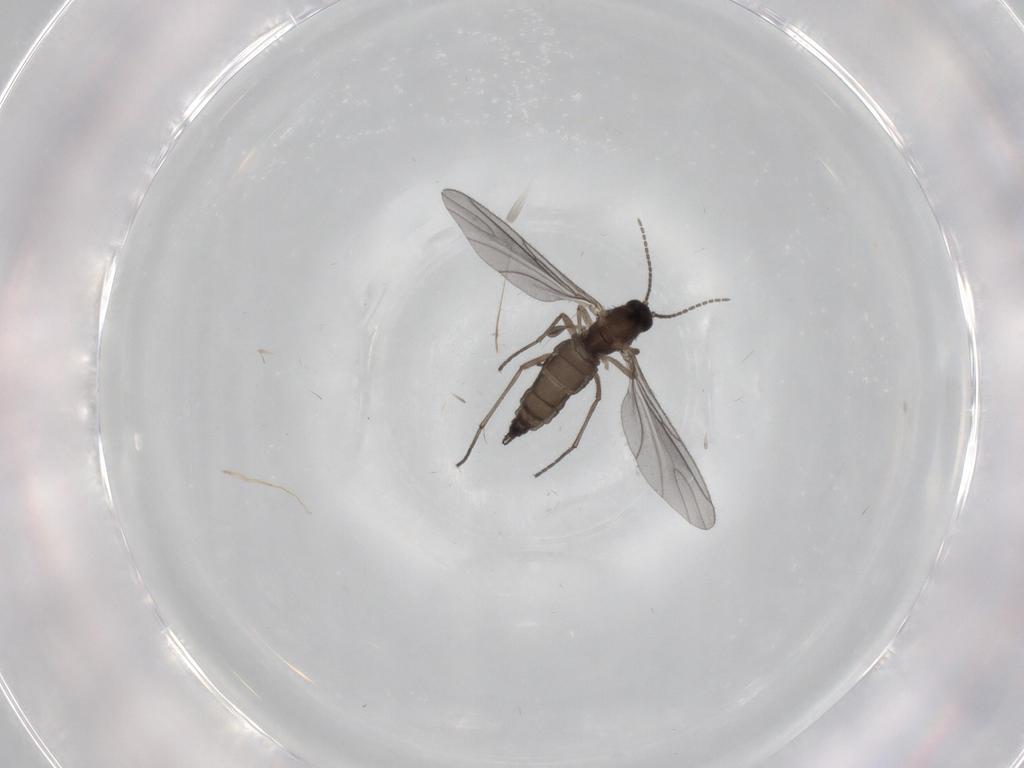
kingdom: Animalia
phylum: Arthropoda
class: Insecta
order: Diptera
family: Sciaridae
